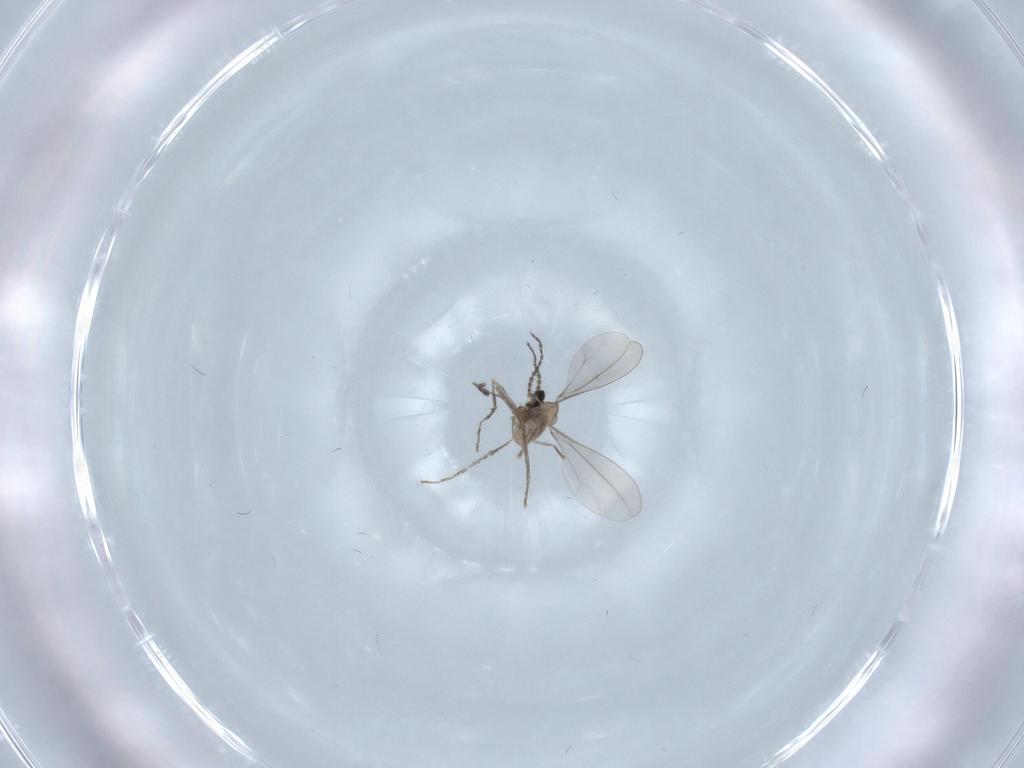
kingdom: Animalia
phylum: Arthropoda
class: Insecta
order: Diptera
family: Cecidomyiidae
